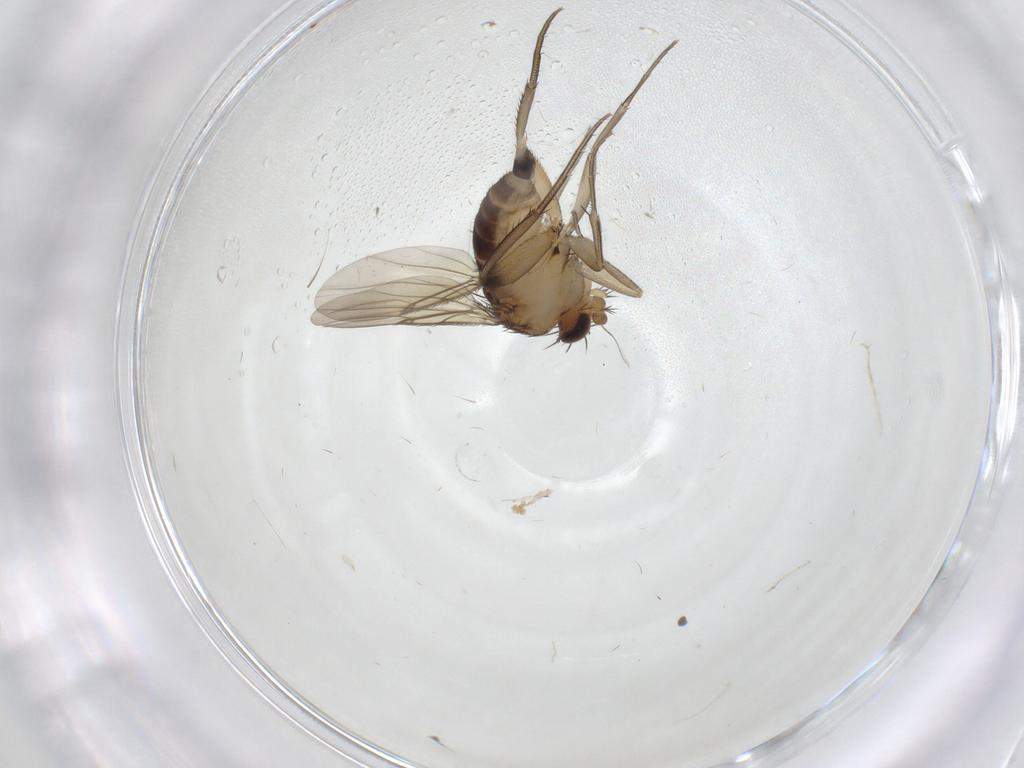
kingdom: Animalia
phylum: Arthropoda
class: Insecta
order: Diptera
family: Phoridae
